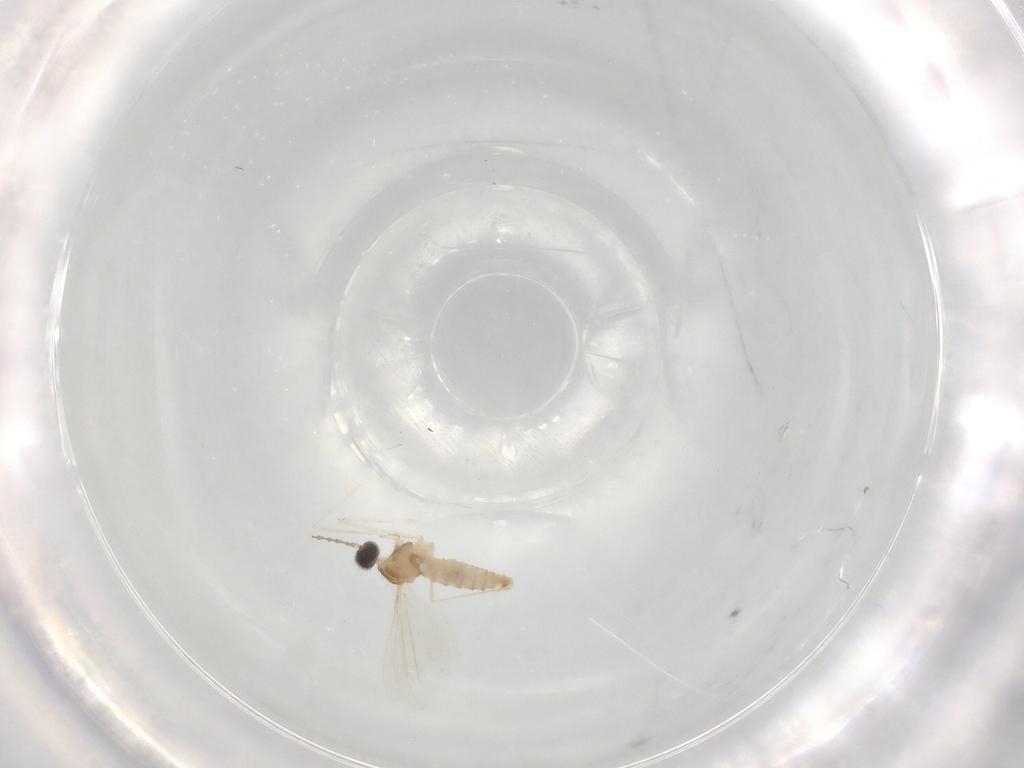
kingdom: Animalia
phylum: Arthropoda
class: Insecta
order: Diptera
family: Cecidomyiidae
